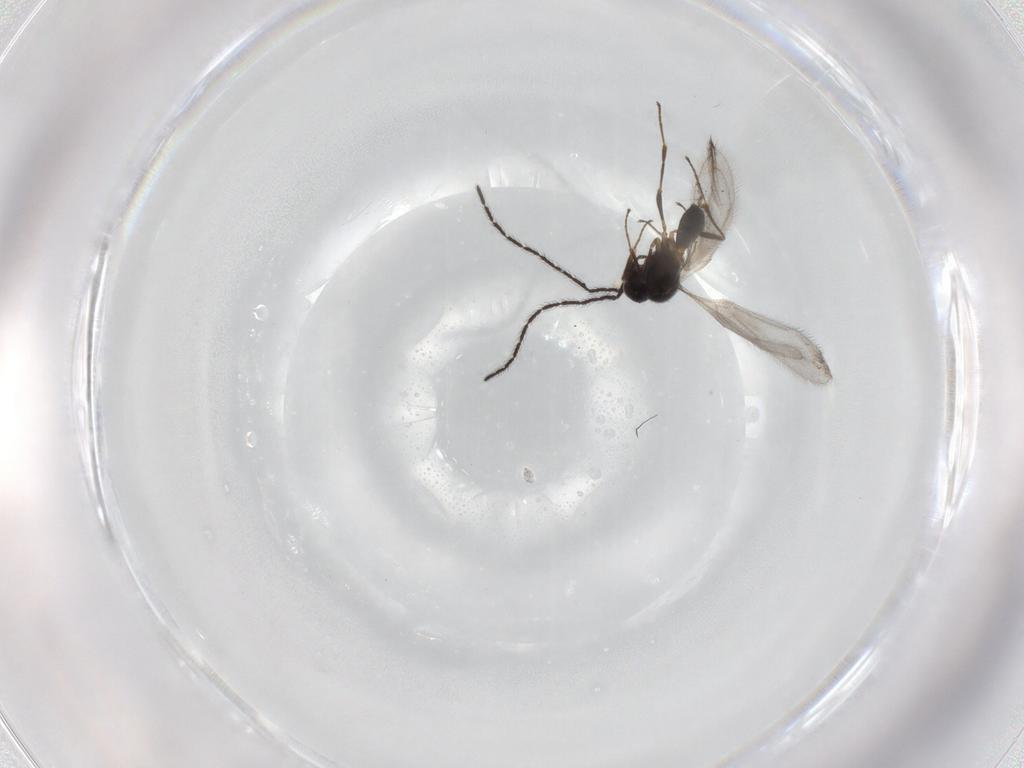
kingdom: Animalia
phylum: Arthropoda
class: Insecta
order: Hymenoptera
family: Scelionidae
